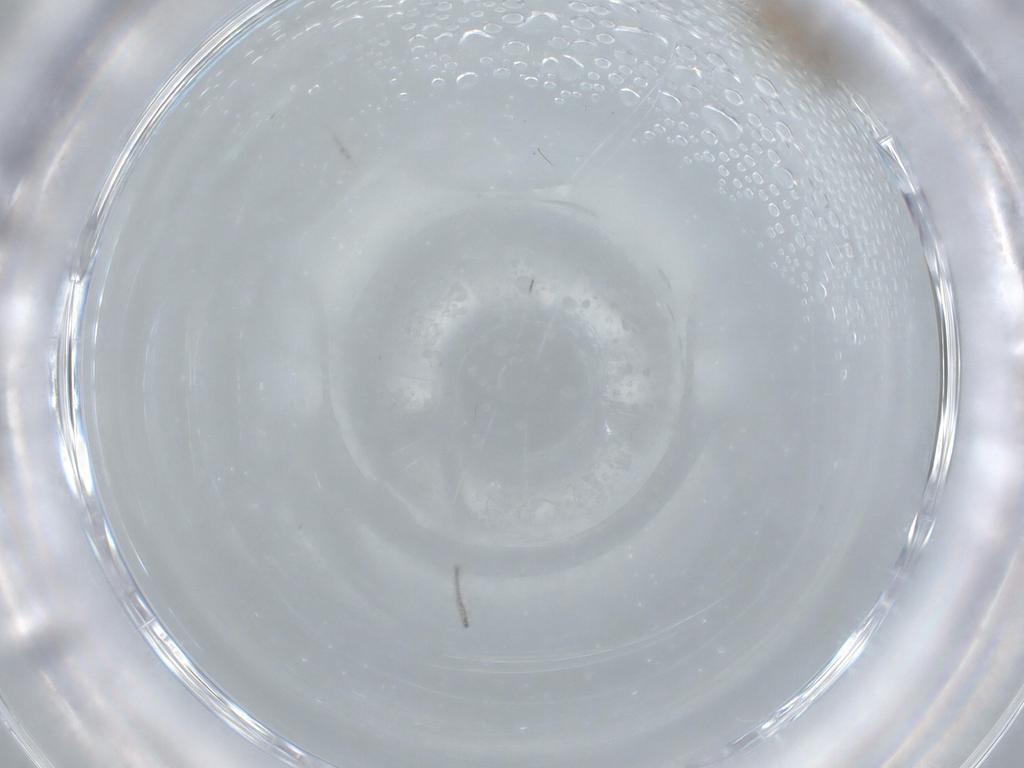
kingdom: Animalia
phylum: Arthropoda
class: Insecta
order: Diptera
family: Cecidomyiidae
